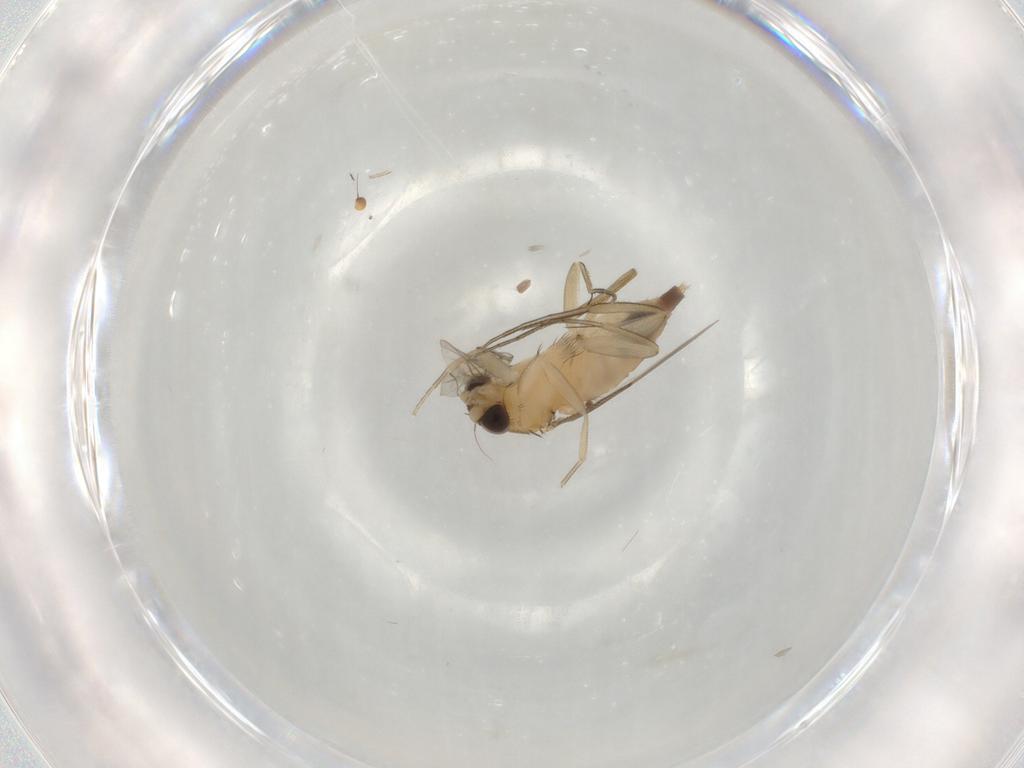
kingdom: Animalia
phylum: Arthropoda
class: Insecta
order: Diptera
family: Phoridae
